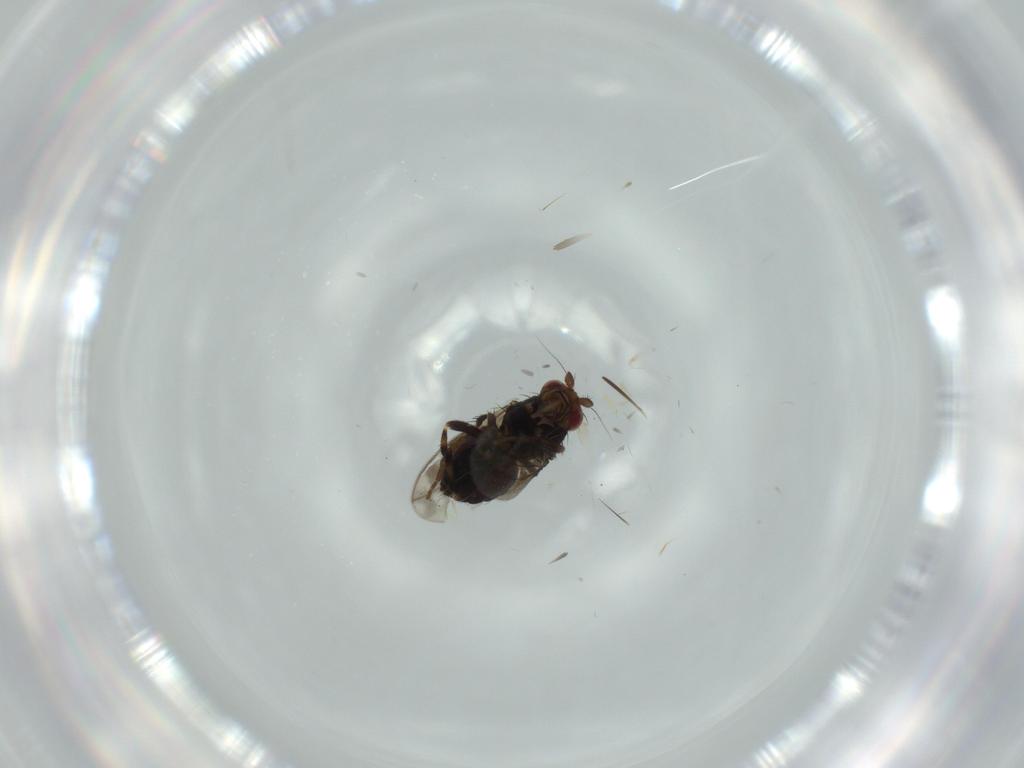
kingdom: Animalia
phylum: Arthropoda
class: Insecta
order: Diptera
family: Sphaeroceridae
